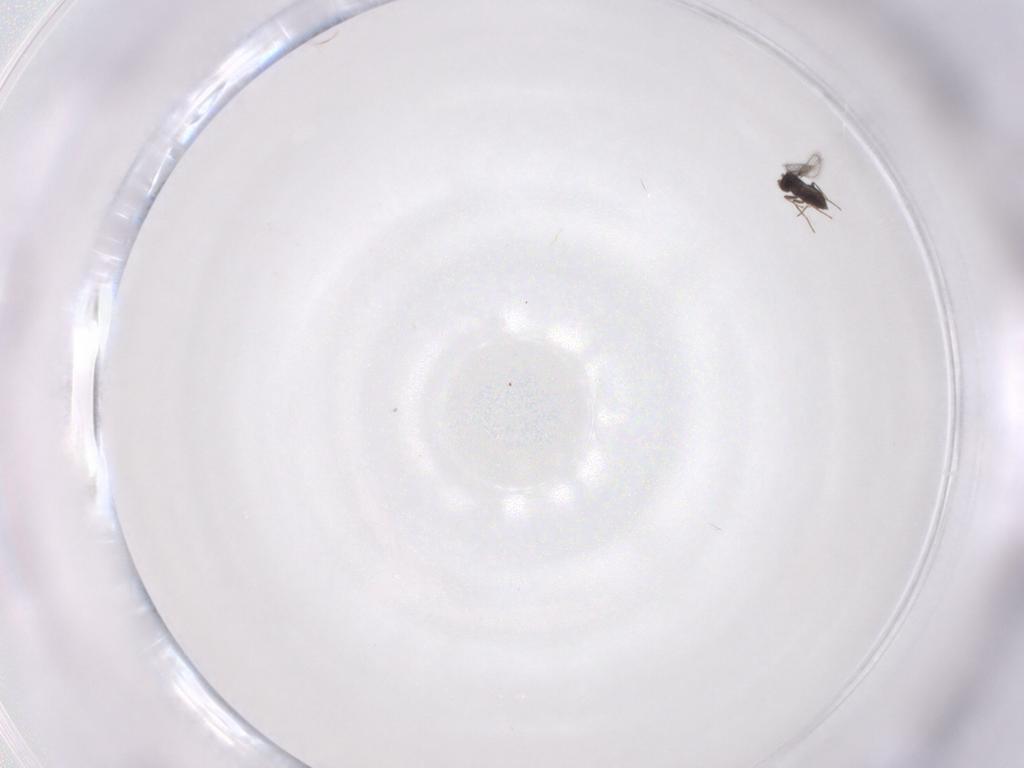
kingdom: Animalia
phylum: Arthropoda
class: Insecta
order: Hymenoptera
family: Trichogrammatidae
